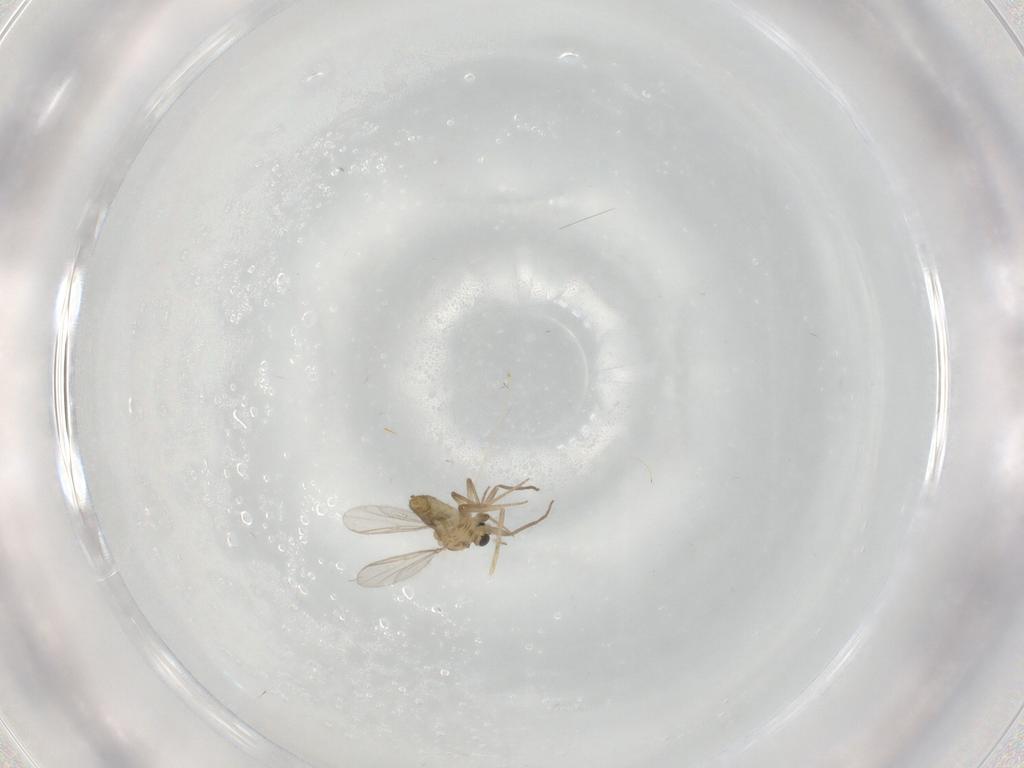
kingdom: Animalia
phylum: Arthropoda
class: Insecta
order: Diptera
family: Chironomidae
